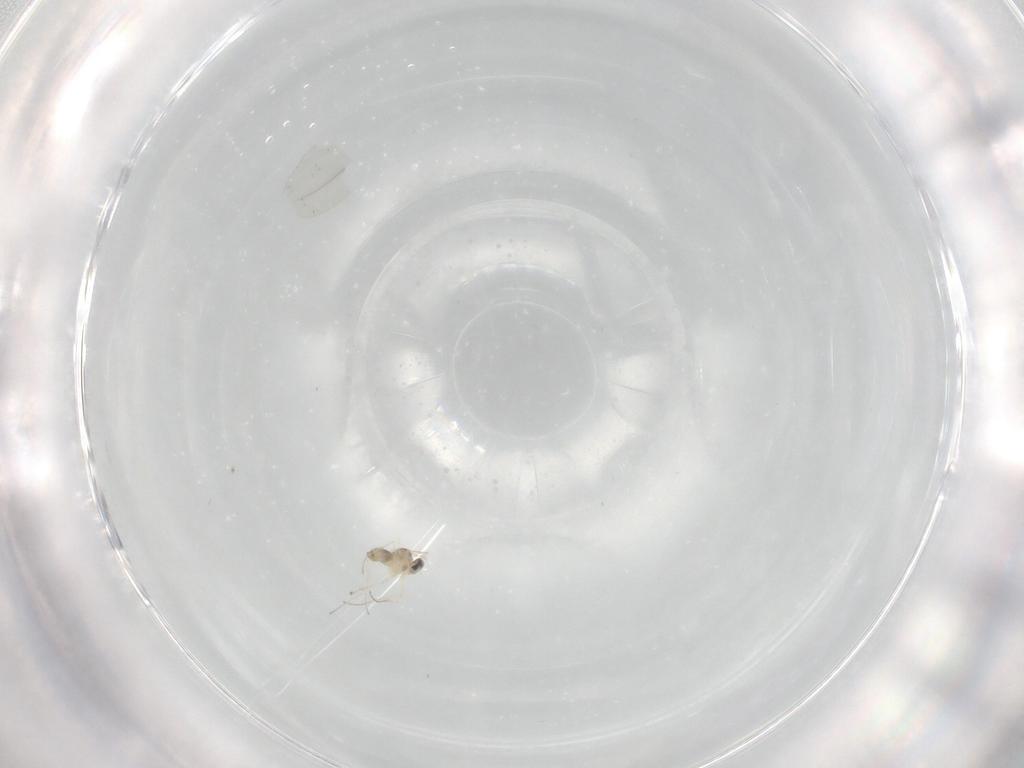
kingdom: Animalia
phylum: Arthropoda
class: Insecta
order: Diptera
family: Cecidomyiidae
